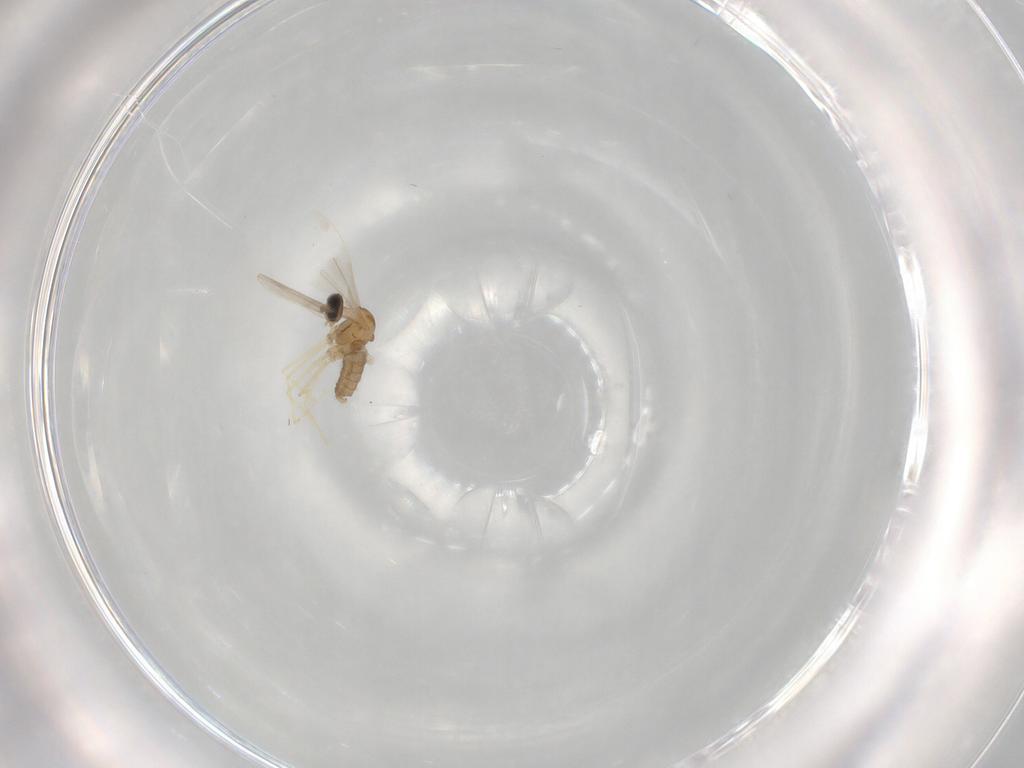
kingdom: Animalia
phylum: Arthropoda
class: Insecta
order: Diptera
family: Cecidomyiidae
